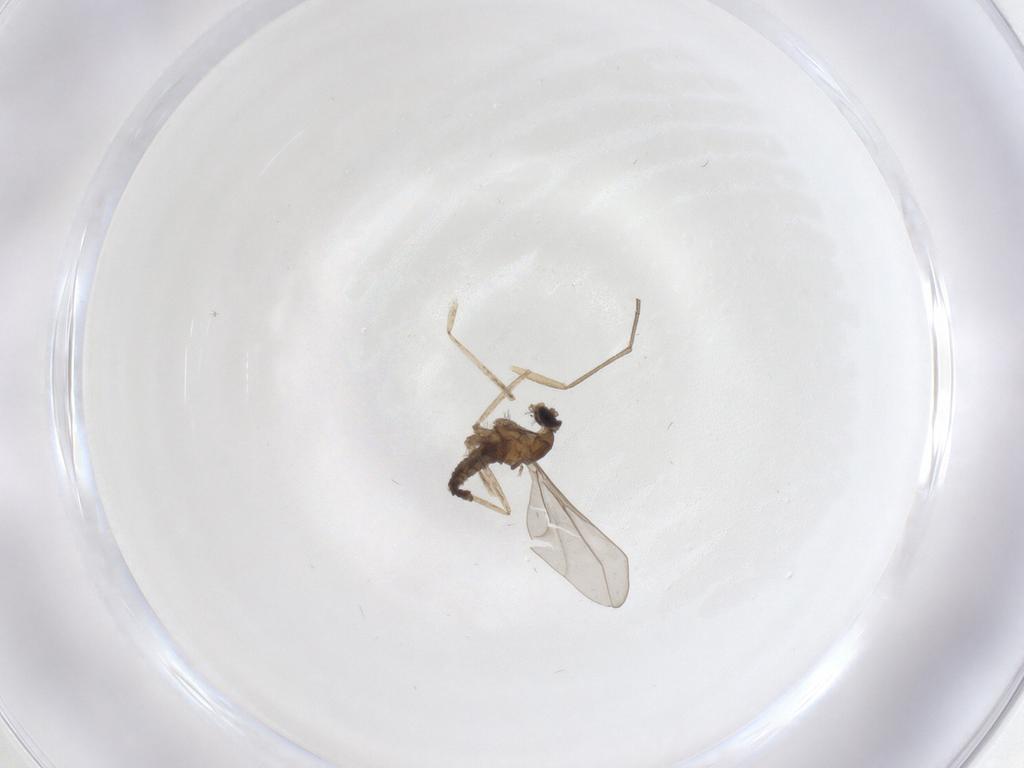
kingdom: Animalia
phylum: Arthropoda
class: Insecta
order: Diptera
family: Cecidomyiidae
